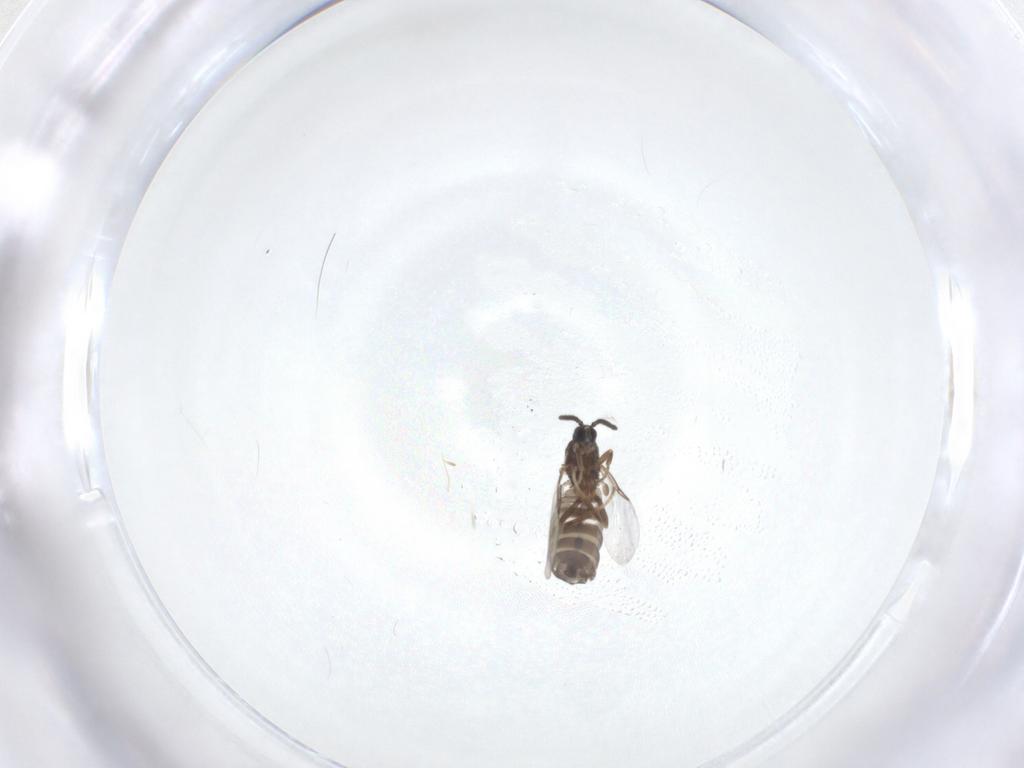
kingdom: Animalia
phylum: Arthropoda
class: Insecta
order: Diptera
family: Scatopsidae
